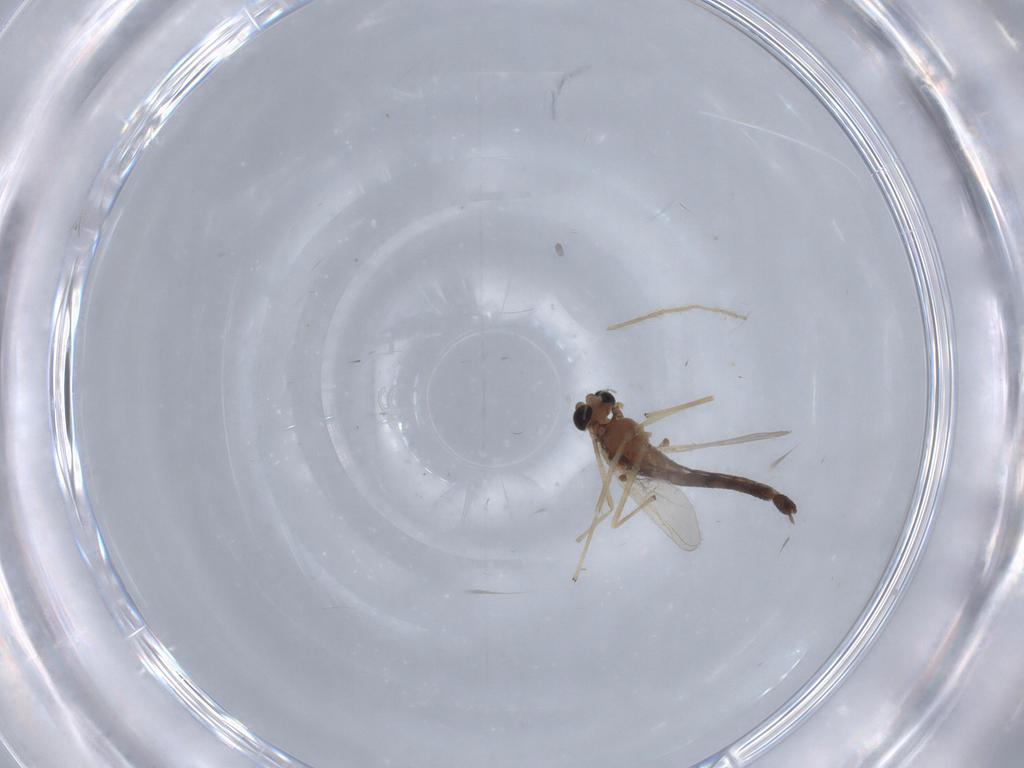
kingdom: Animalia
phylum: Arthropoda
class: Insecta
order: Diptera
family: Chironomidae
